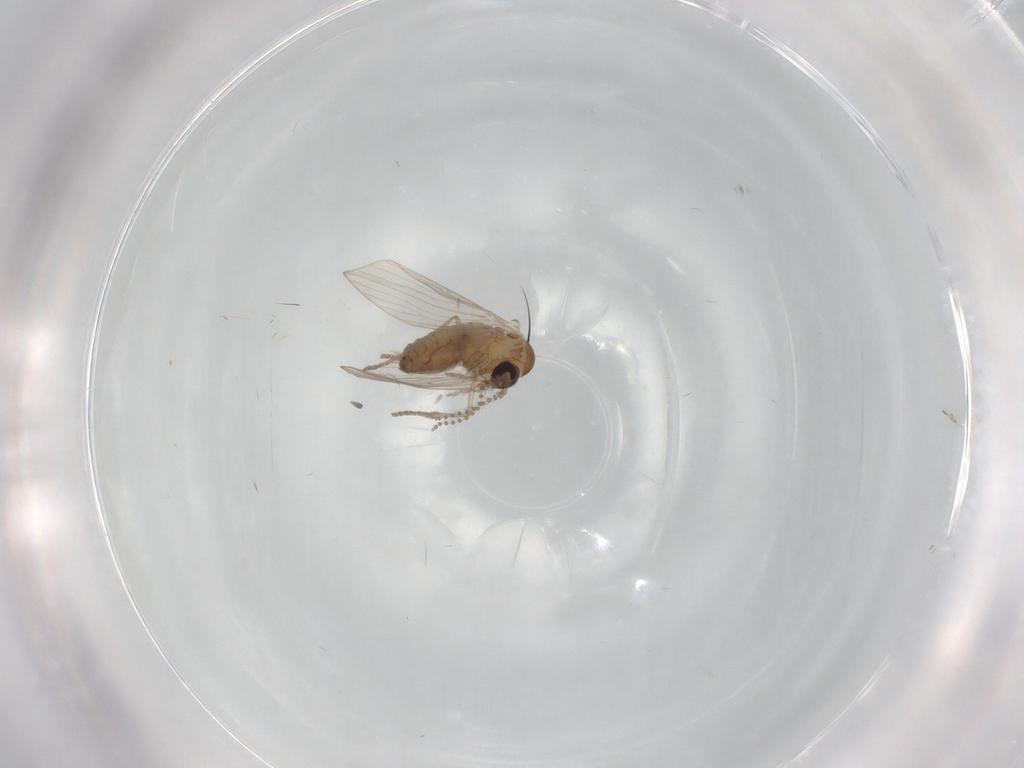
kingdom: Animalia
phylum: Arthropoda
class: Insecta
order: Diptera
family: Psychodidae
